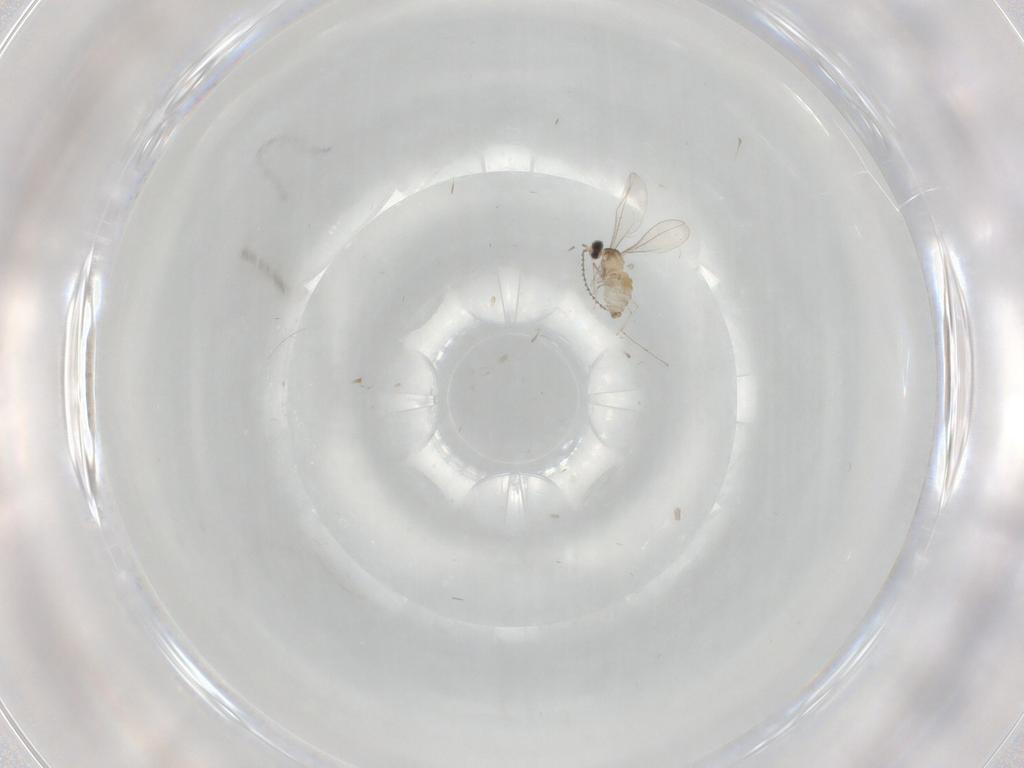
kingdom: Animalia
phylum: Arthropoda
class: Insecta
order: Diptera
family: Cecidomyiidae
